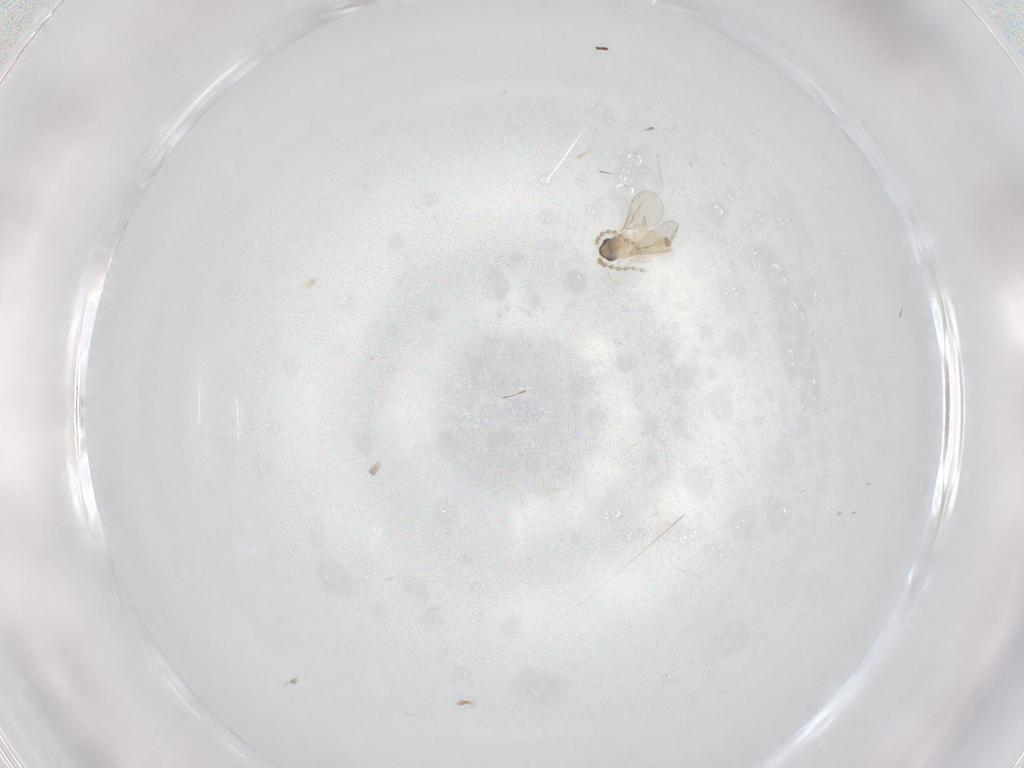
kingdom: Animalia
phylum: Arthropoda
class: Insecta
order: Diptera
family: Cecidomyiidae
